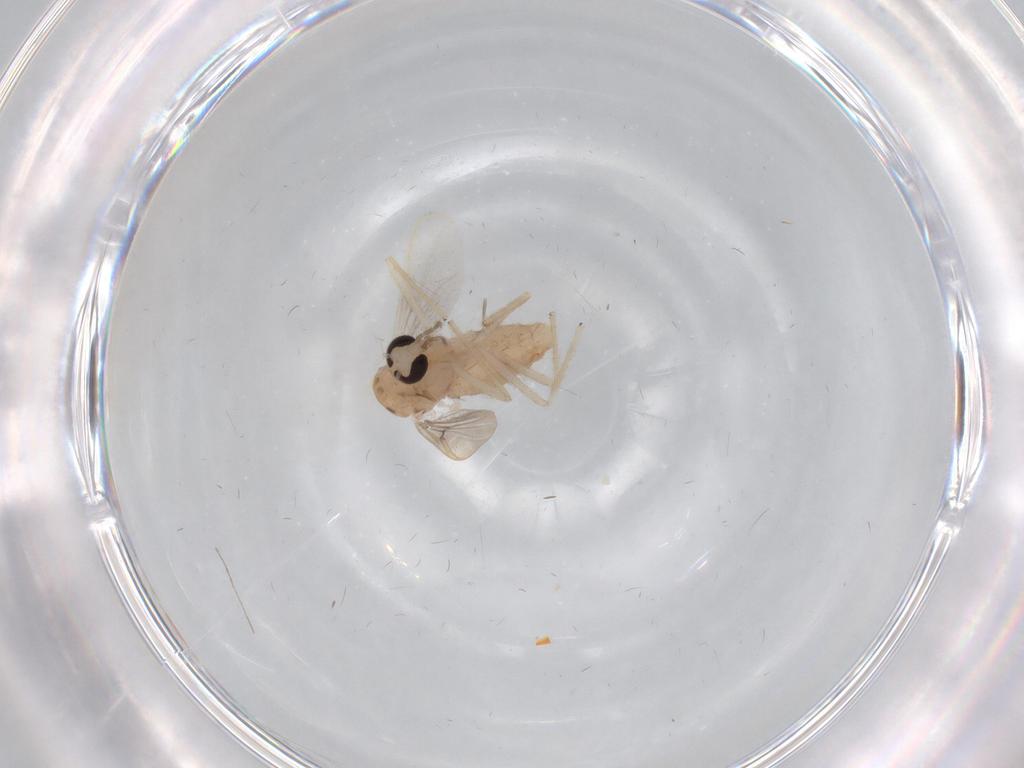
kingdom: Animalia
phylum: Arthropoda
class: Insecta
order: Diptera
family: Chironomidae
